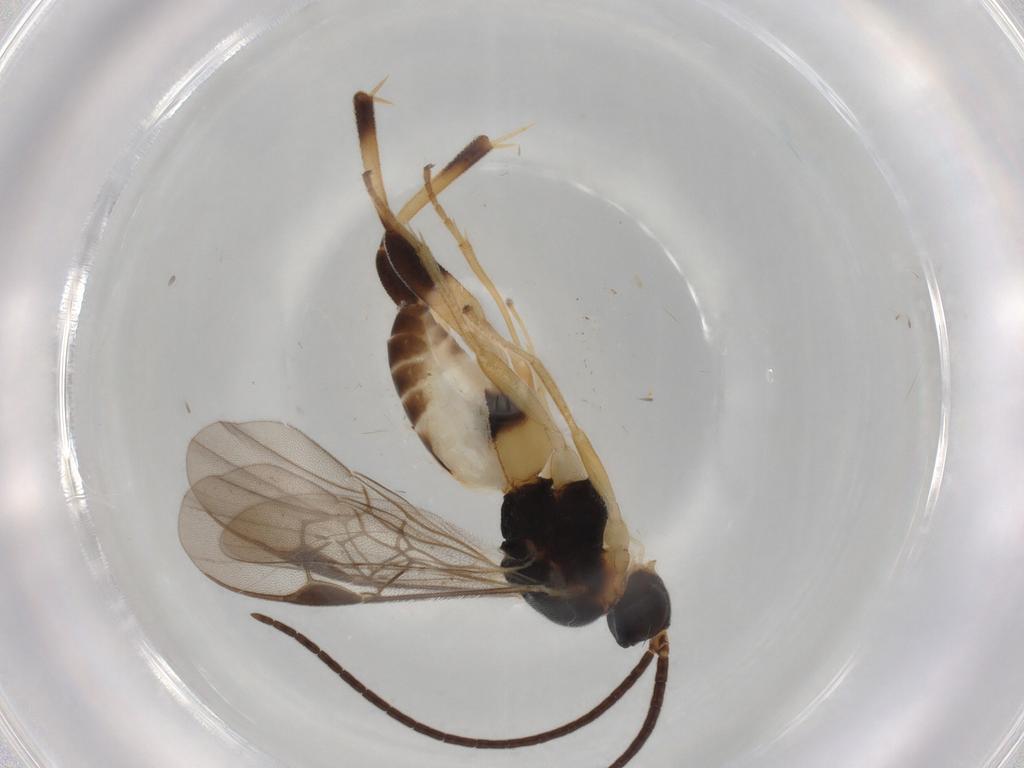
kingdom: Animalia
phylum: Arthropoda
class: Insecta
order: Hymenoptera
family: Braconidae
